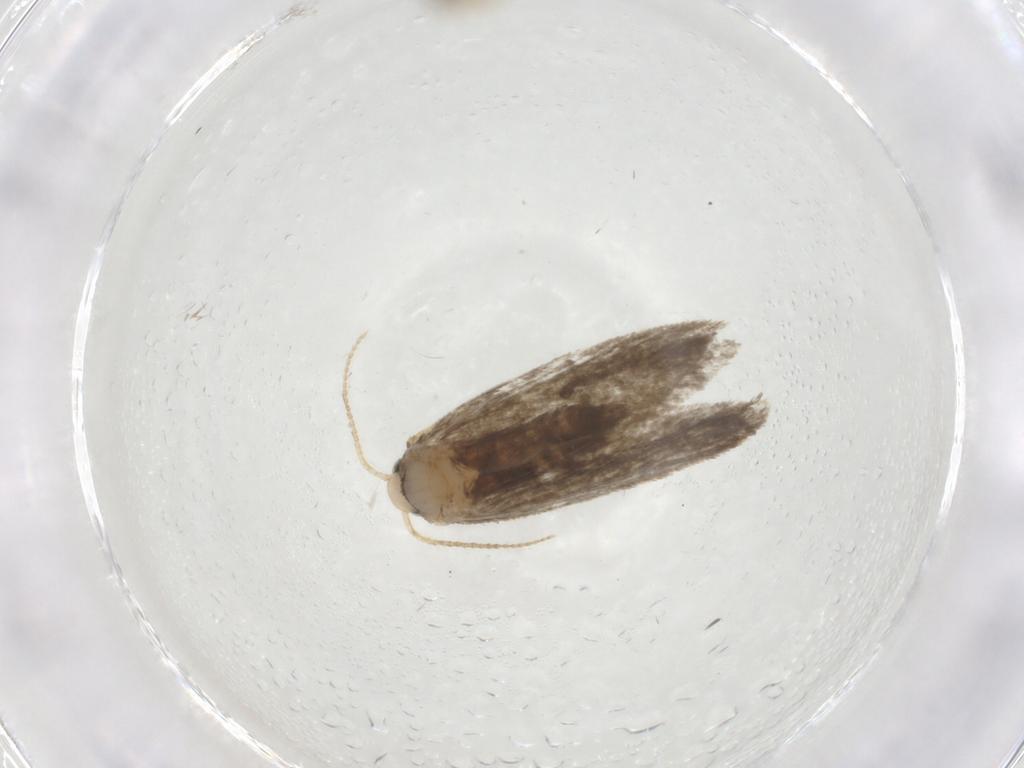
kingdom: Animalia
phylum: Arthropoda
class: Insecta
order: Lepidoptera
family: Psychidae
